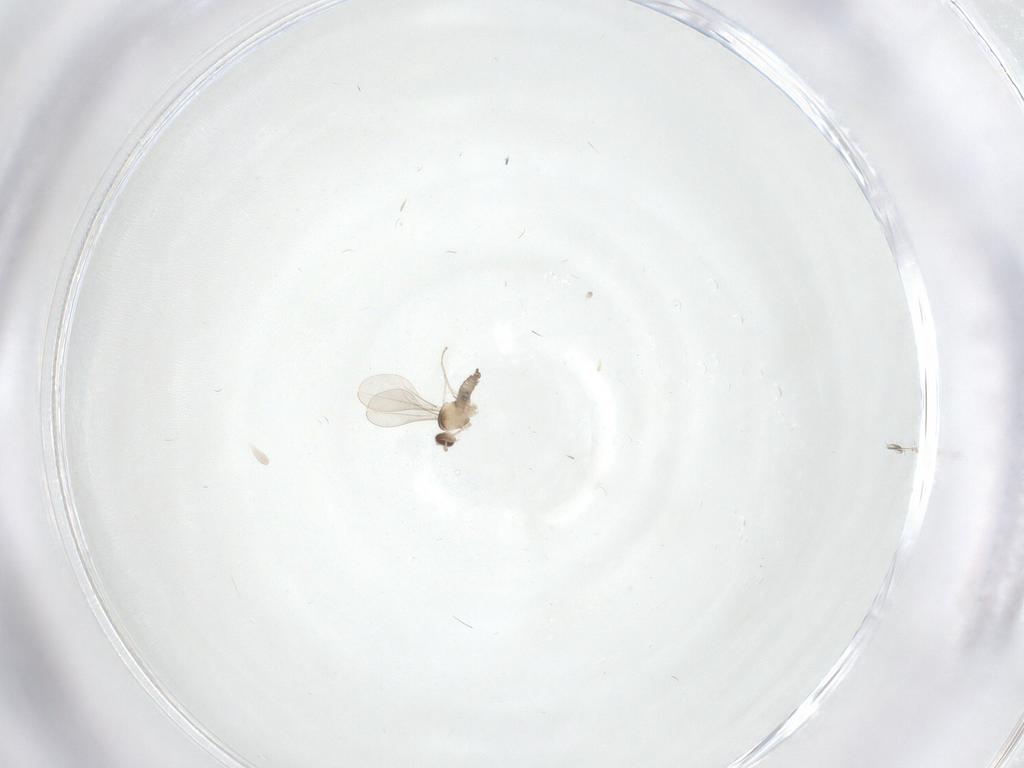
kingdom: Animalia
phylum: Arthropoda
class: Insecta
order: Diptera
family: Cecidomyiidae
